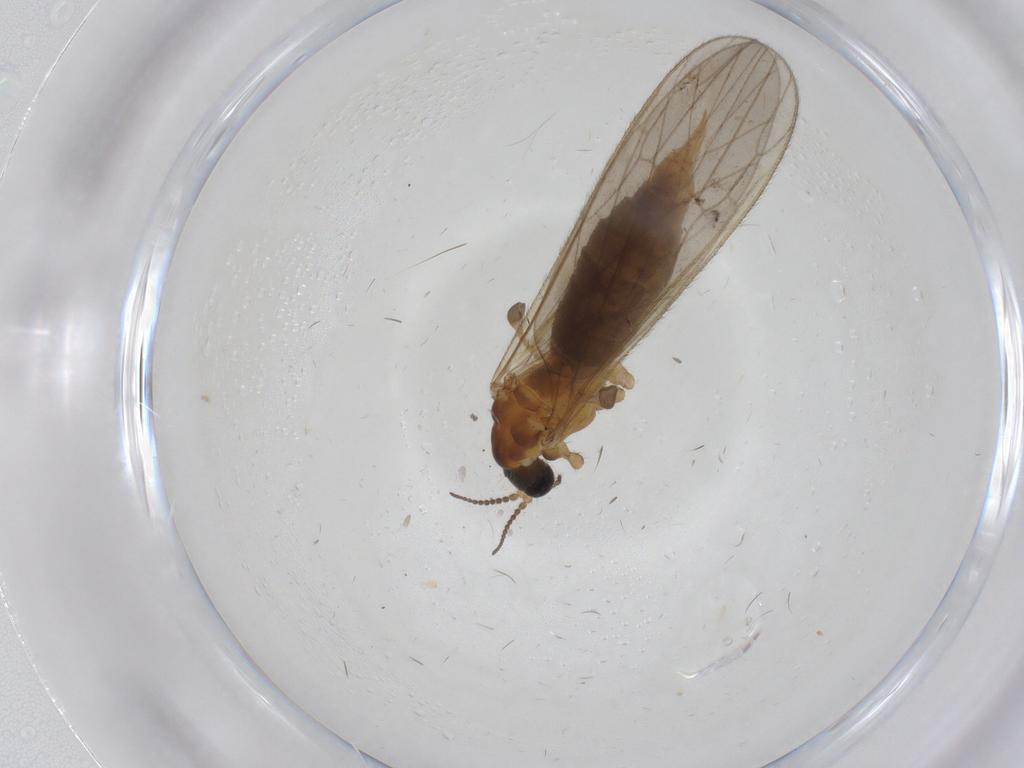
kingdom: Animalia
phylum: Arthropoda
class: Insecta
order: Diptera
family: Limoniidae
